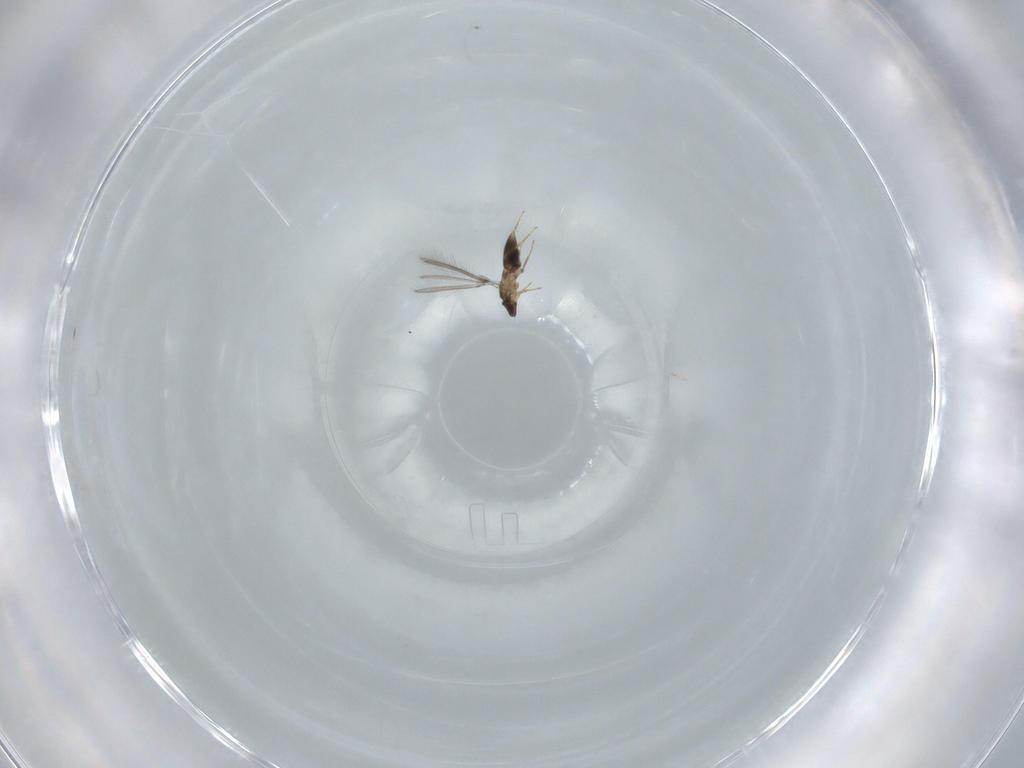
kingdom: Animalia
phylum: Arthropoda
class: Insecta
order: Hymenoptera
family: Mymaridae
